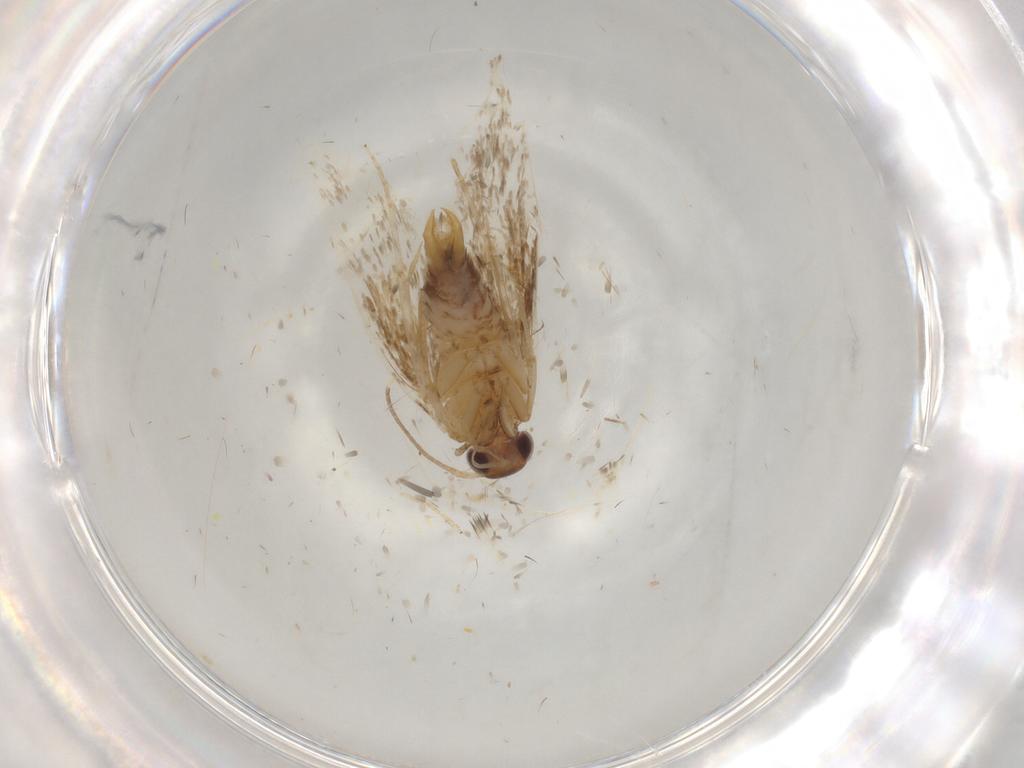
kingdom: Animalia
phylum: Arthropoda
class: Insecta
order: Lepidoptera
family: Oecophoridae
